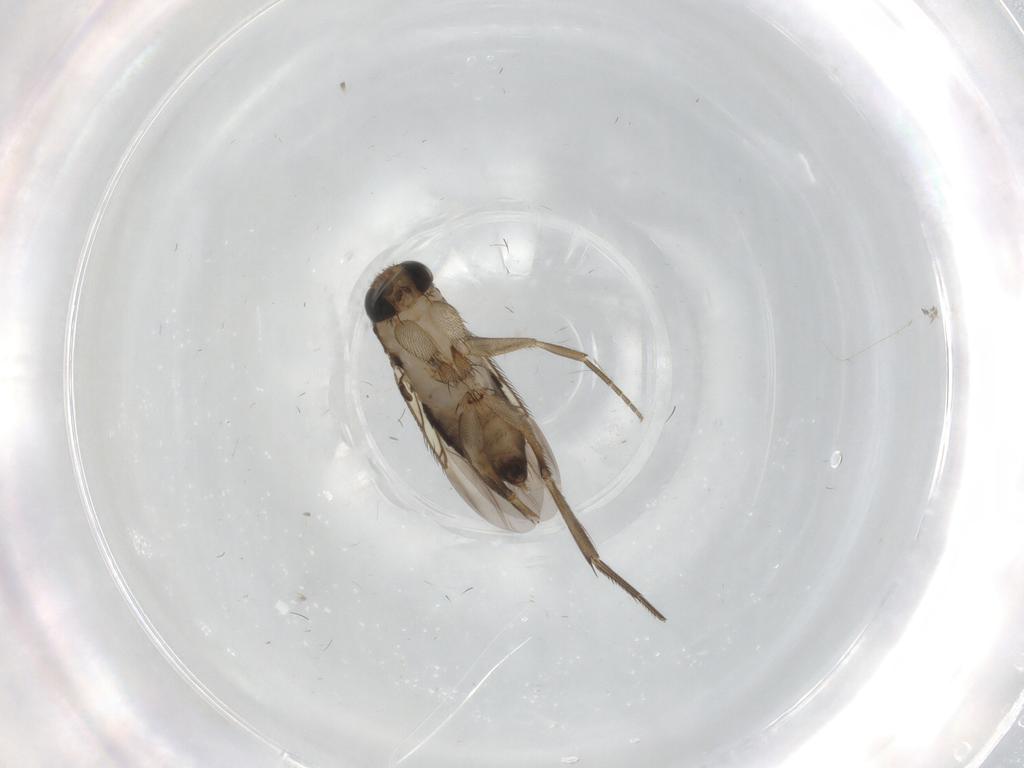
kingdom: Animalia
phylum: Arthropoda
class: Insecta
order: Diptera
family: Phoridae
